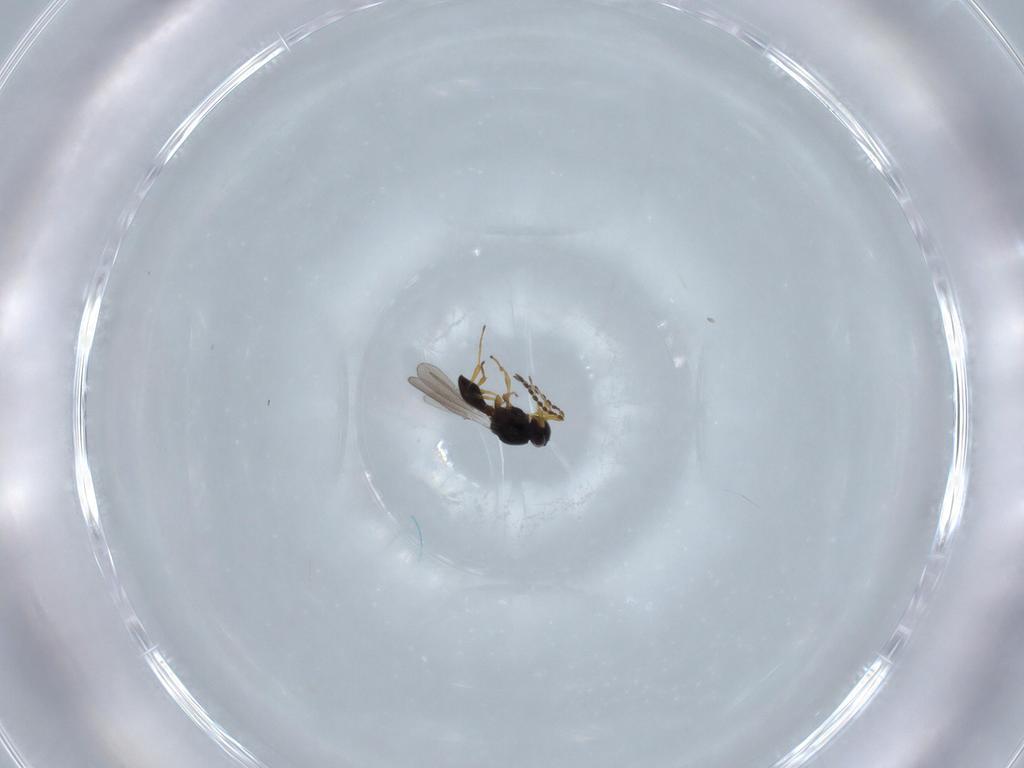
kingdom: Animalia
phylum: Arthropoda
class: Insecta
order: Hymenoptera
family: Platygastridae
